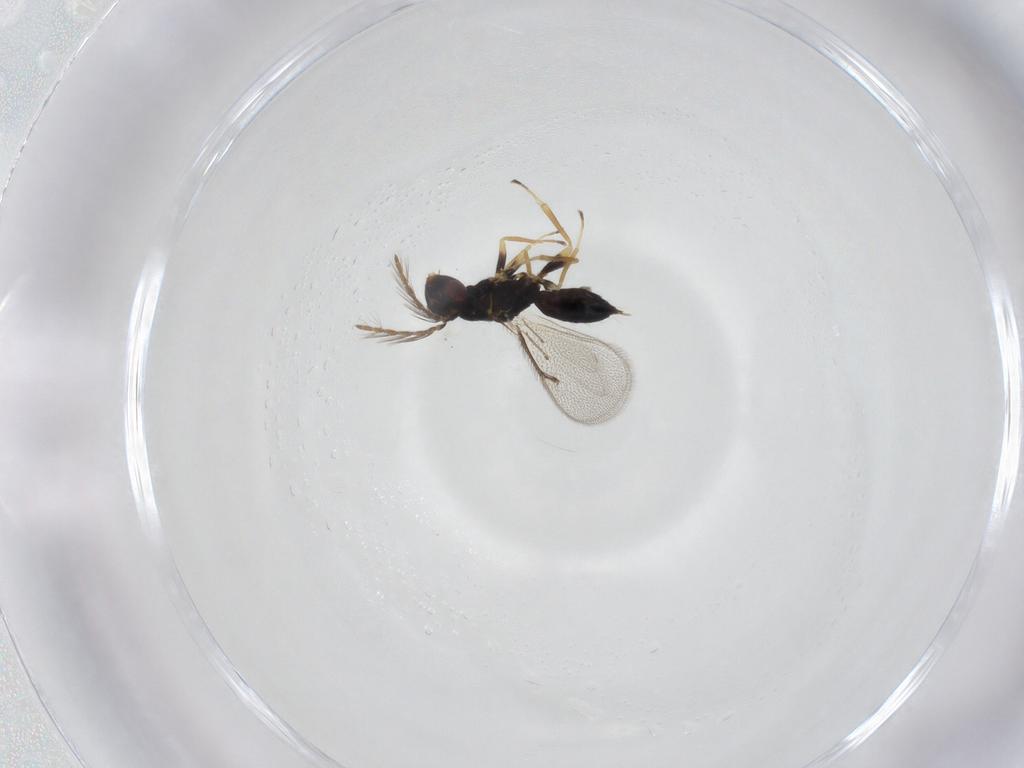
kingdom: Animalia
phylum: Arthropoda
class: Insecta
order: Hymenoptera
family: Eulophidae
